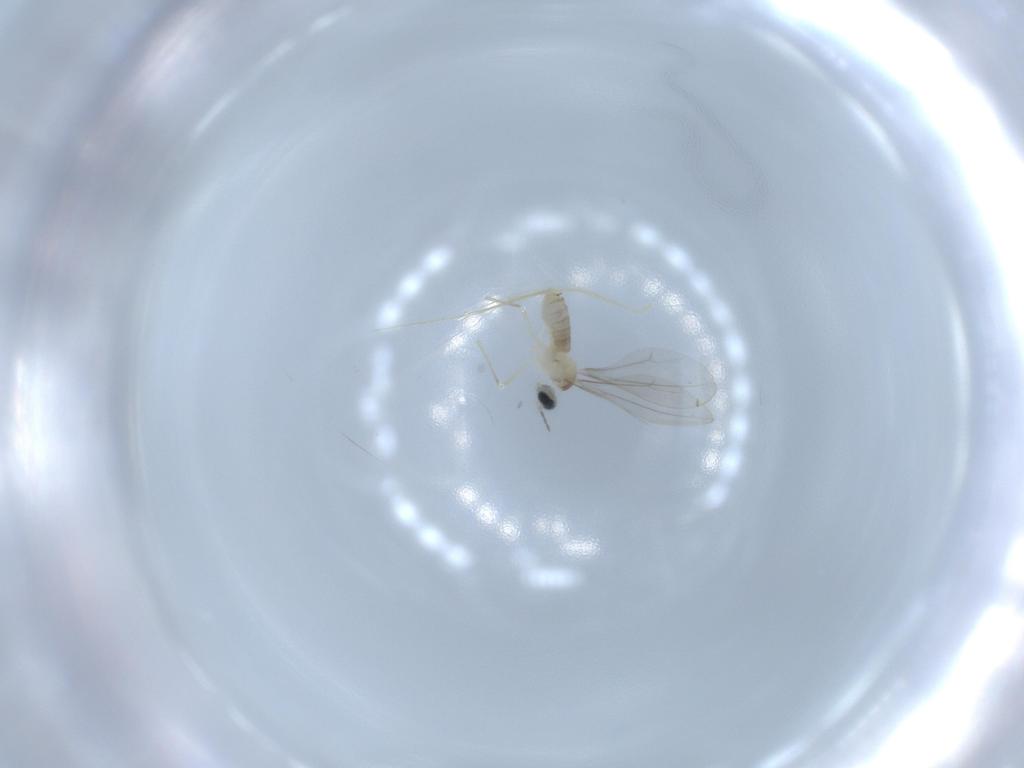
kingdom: Animalia
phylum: Arthropoda
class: Insecta
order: Diptera
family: Cecidomyiidae
